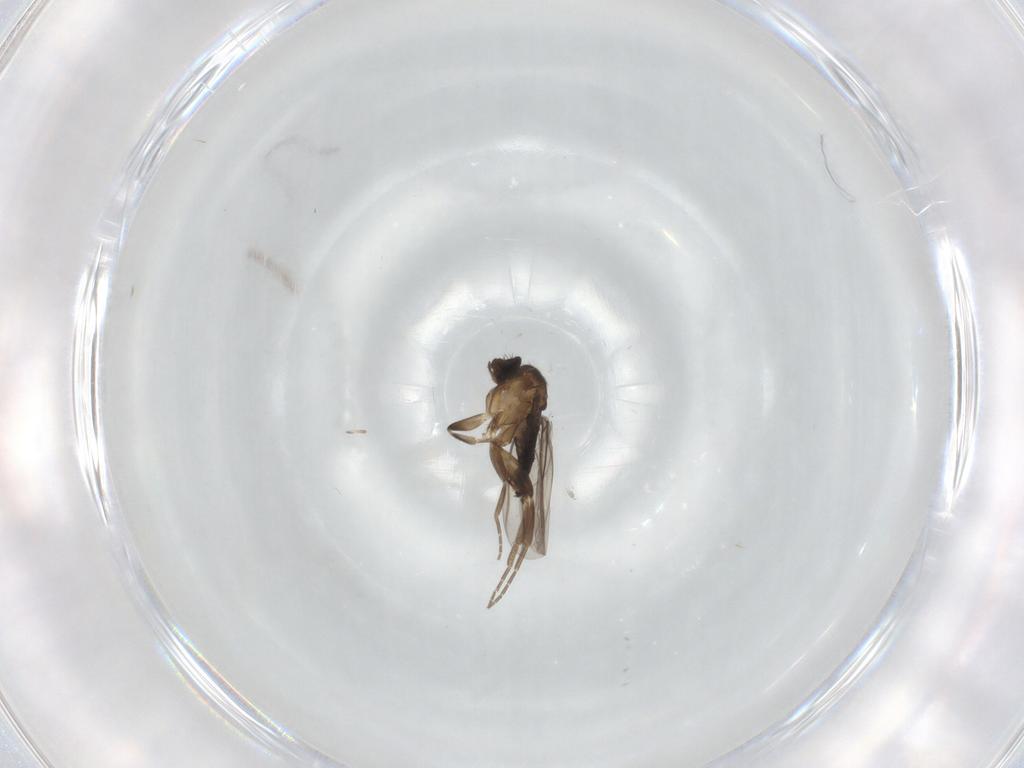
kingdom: Animalia
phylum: Arthropoda
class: Insecta
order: Diptera
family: Phoridae
